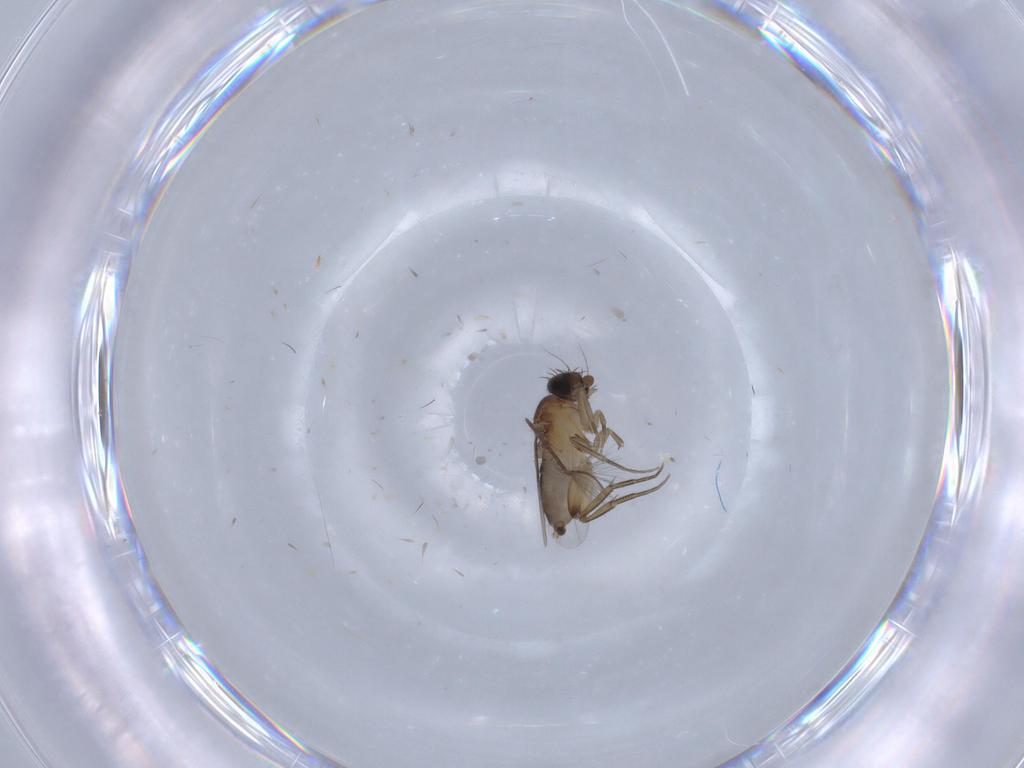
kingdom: Animalia
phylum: Arthropoda
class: Insecta
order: Diptera
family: Phoridae
